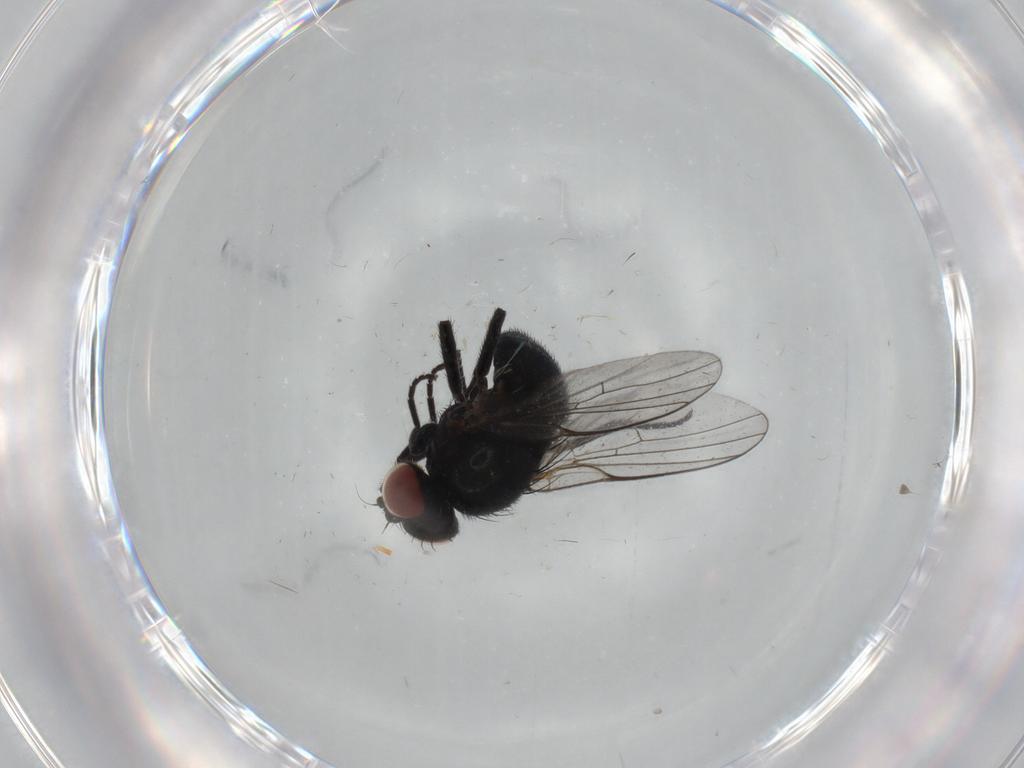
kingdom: Animalia
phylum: Arthropoda
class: Insecta
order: Diptera
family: Agromyzidae
